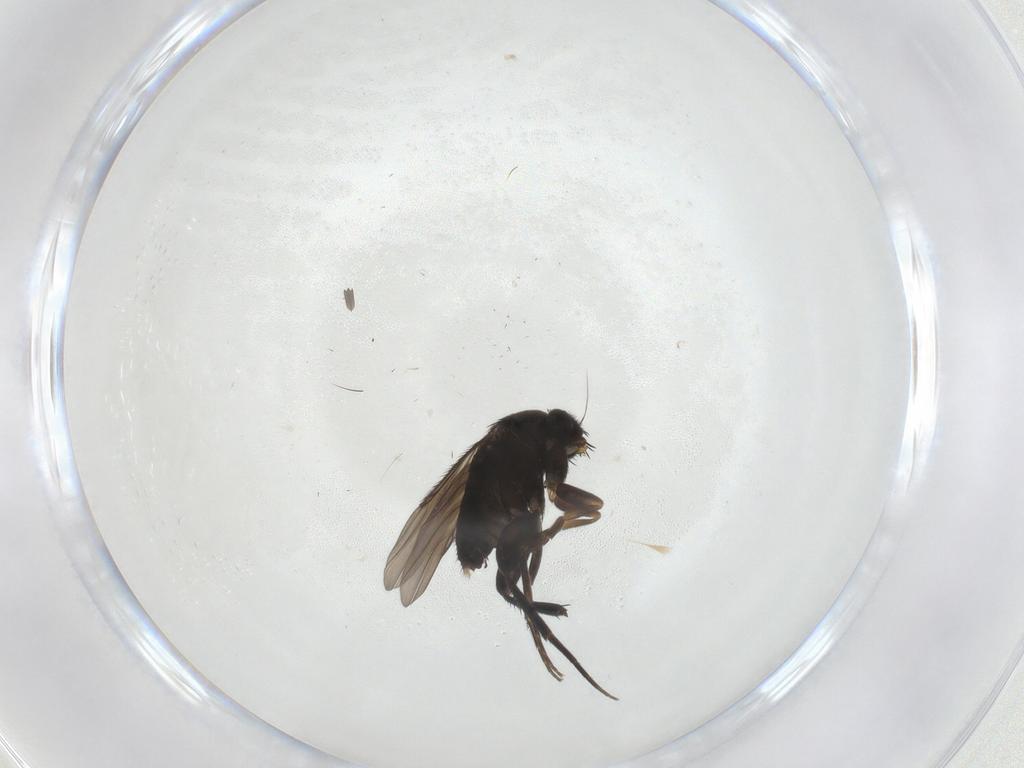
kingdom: Animalia
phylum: Arthropoda
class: Insecta
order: Diptera
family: Phoridae
